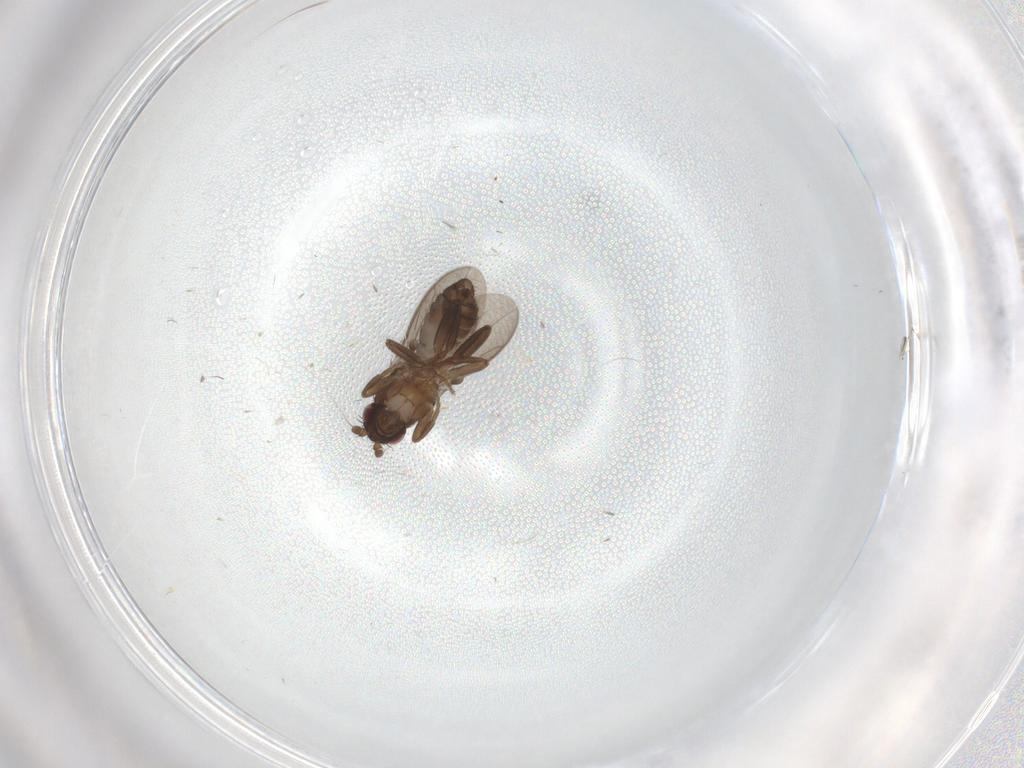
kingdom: Animalia
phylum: Arthropoda
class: Insecta
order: Diptera
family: Sphaeroceridae
